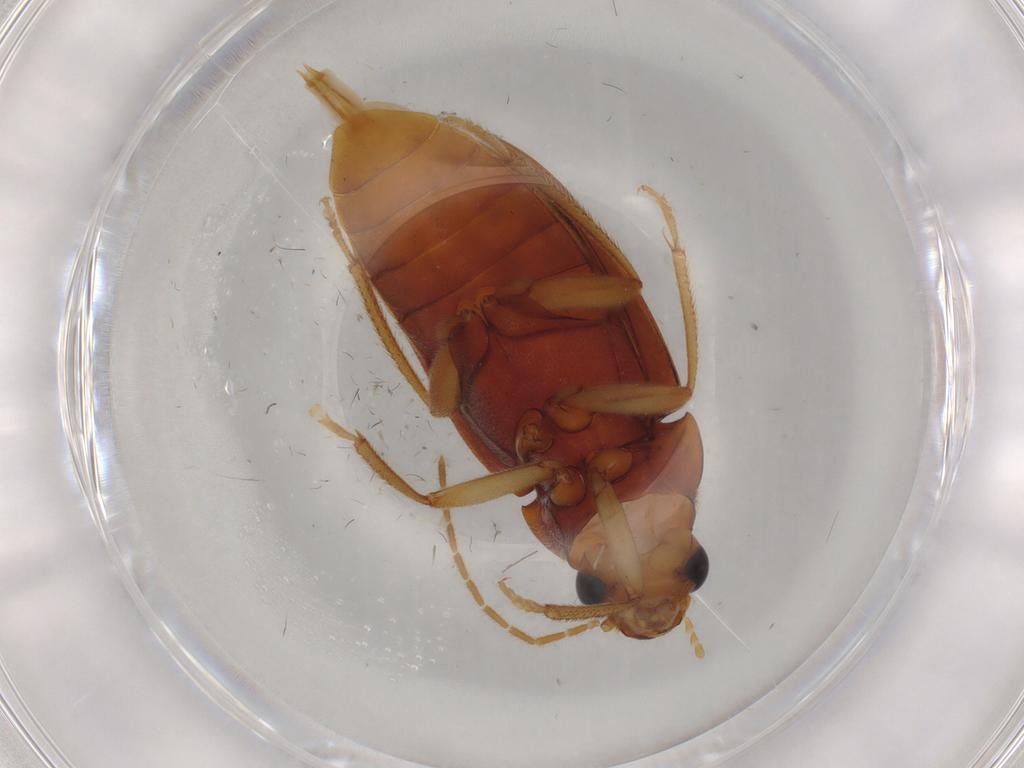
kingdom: Animalia
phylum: Arthropoda
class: Insecta
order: Coleoptera
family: Ptilodactylidae
